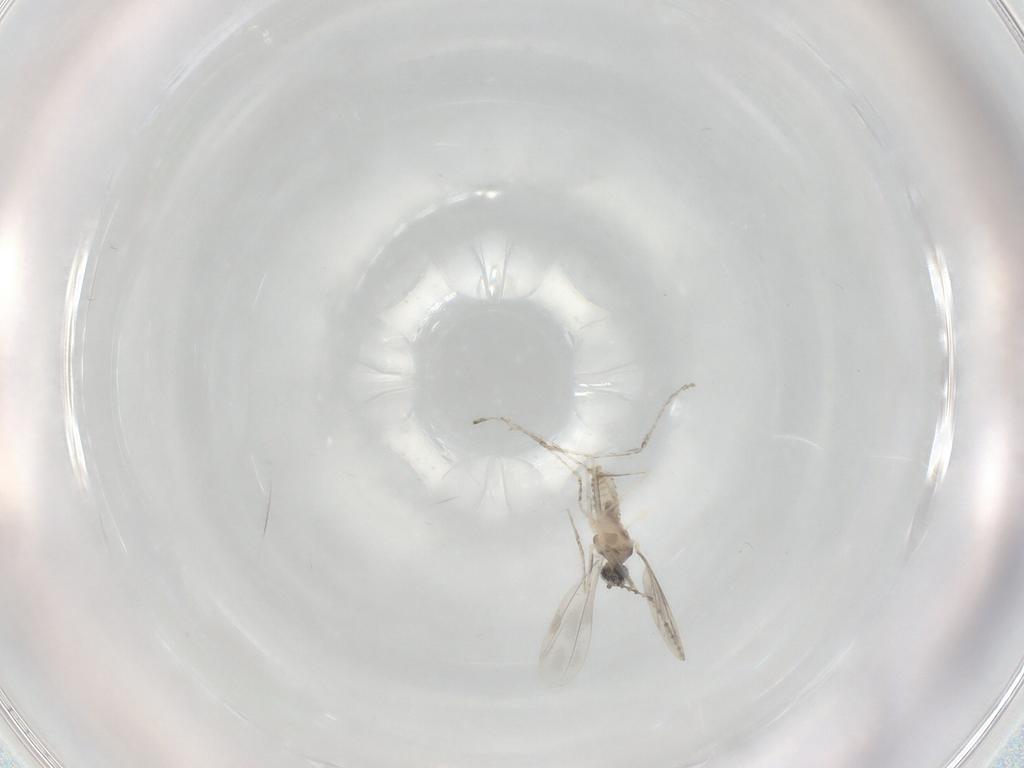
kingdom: Animalia
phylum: Arthropoda
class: Insecta
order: Diptera
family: Cecidomyiidae
